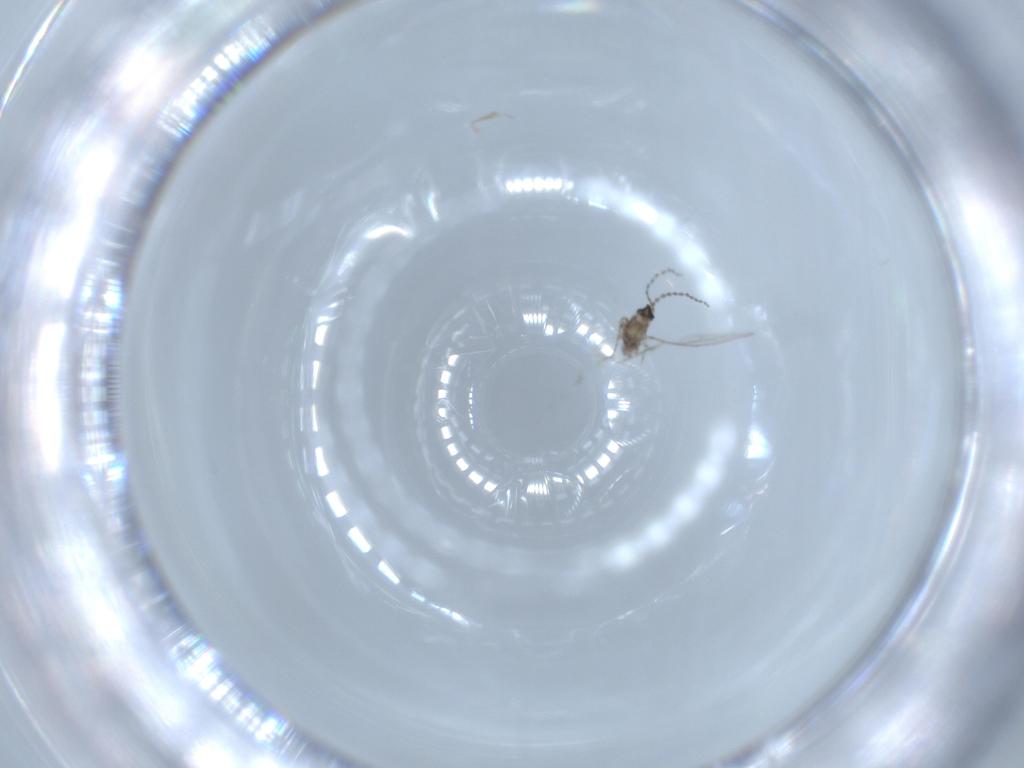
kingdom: Animalia
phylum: Arthropoda
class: Insecta
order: Diptera
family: Cecidomyiidae
